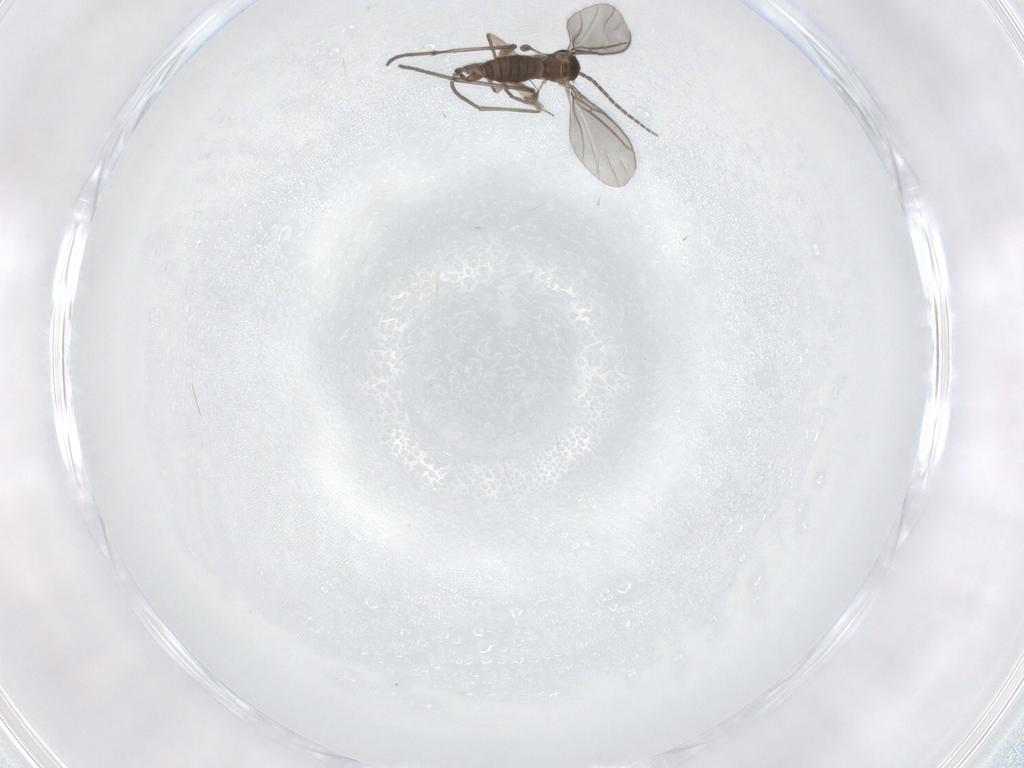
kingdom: Animalia
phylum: Arthropoda
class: Insecta
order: Diptera
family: Sciaridae
